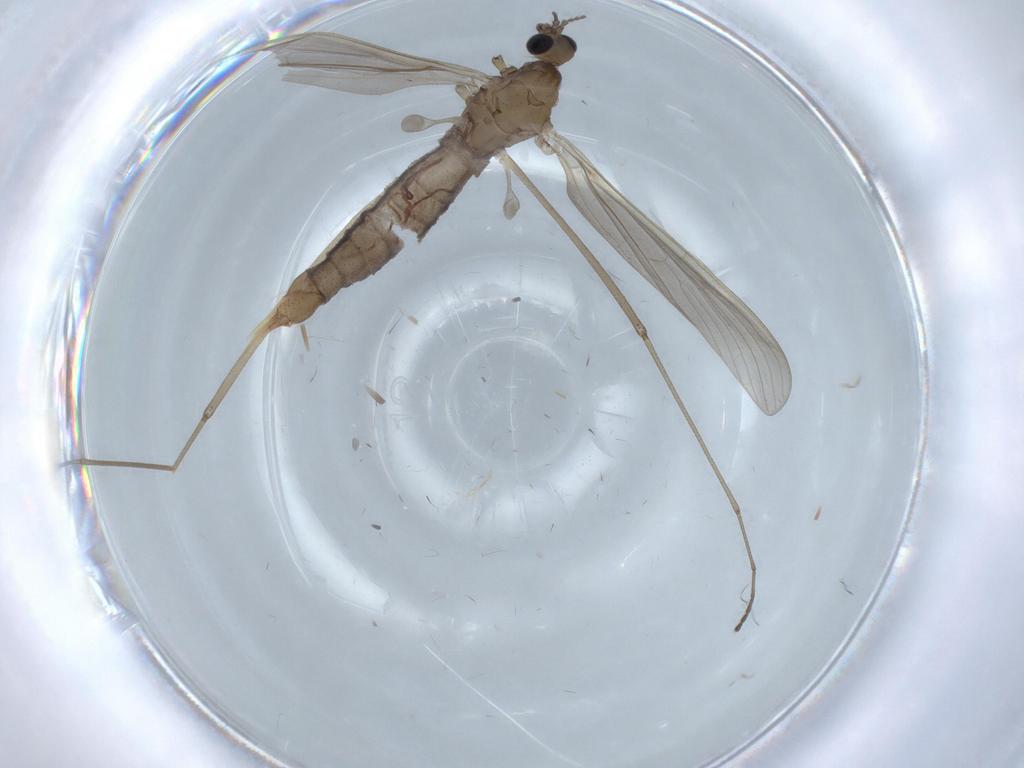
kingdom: Animalia
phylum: Arthropoda
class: Insecta
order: Diptera
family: Limoniidae
